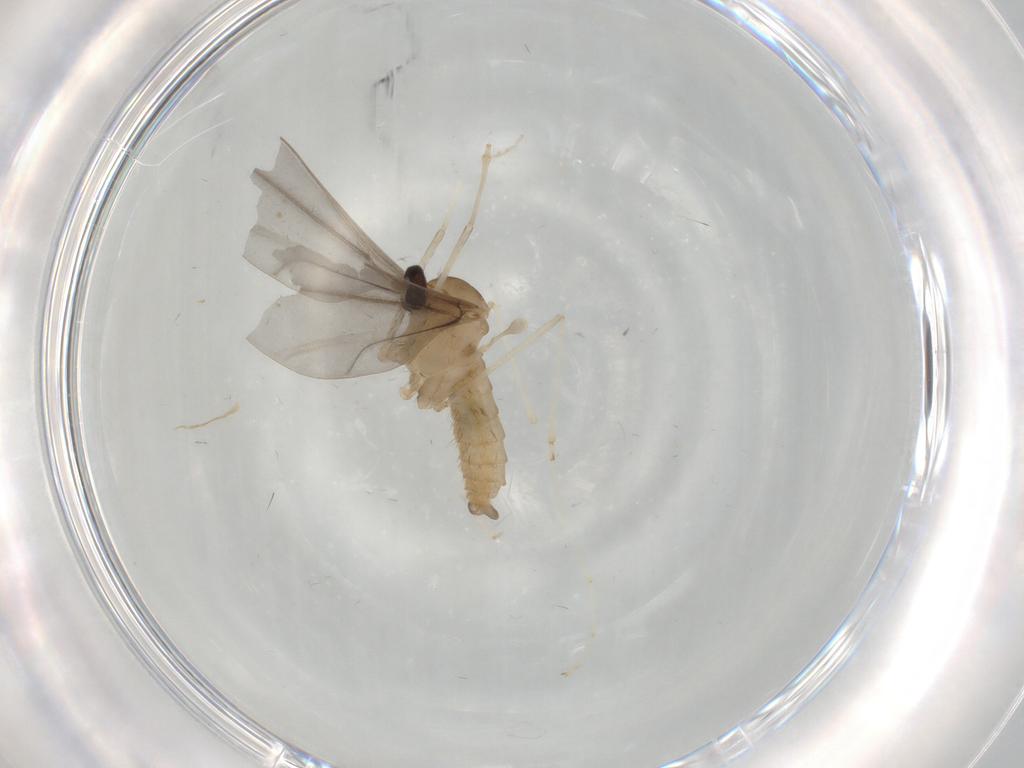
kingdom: Animalia
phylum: Arthropoda
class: Insecta
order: Diptera
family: Cecidomyiidae
